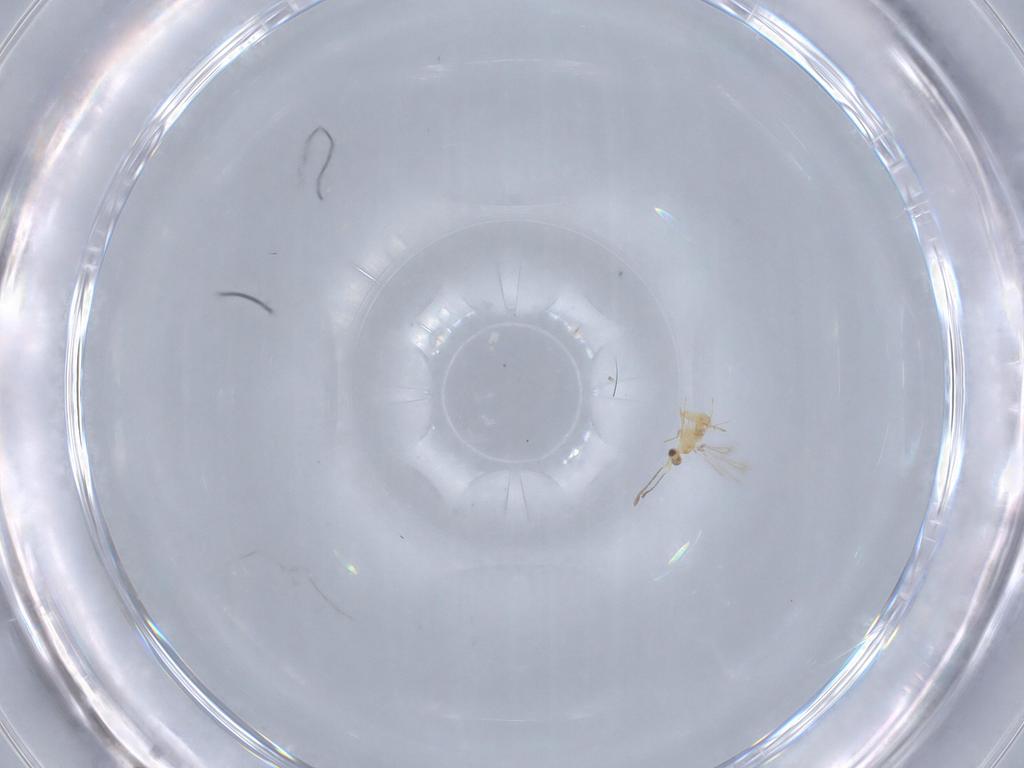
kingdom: Animalia
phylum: Arthropoda
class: Insecta
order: Hymenoptera
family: Mymaridae
